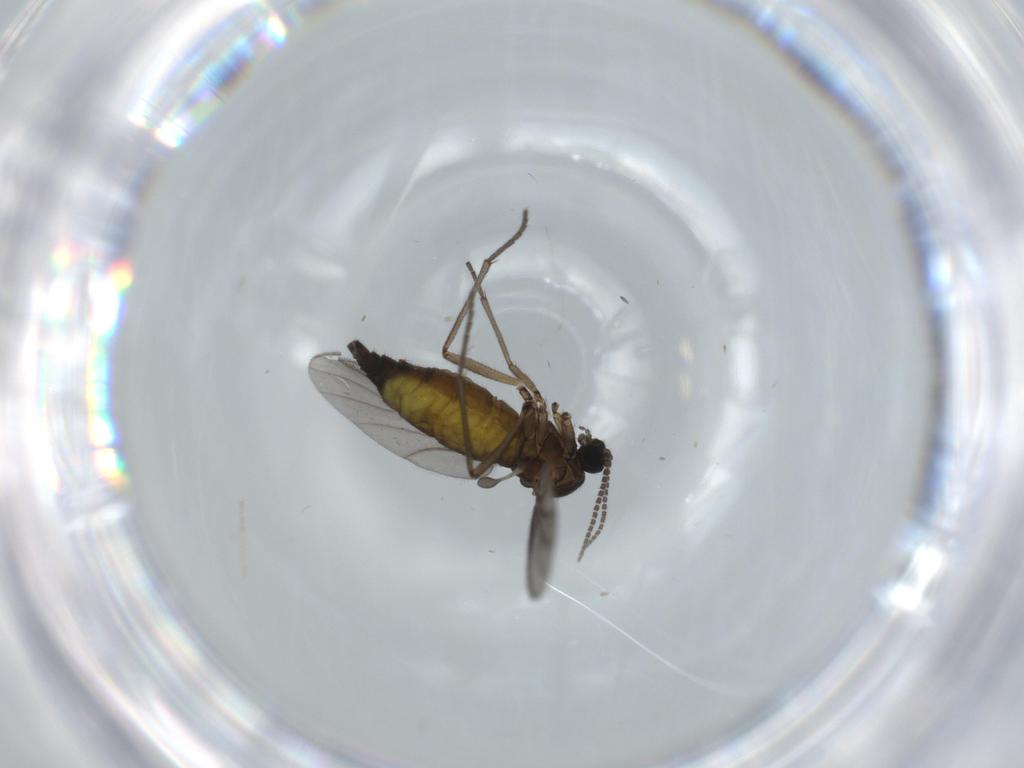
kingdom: Animalia
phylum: Arthropoda
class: Insecta
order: Diptera
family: Sciaridae
